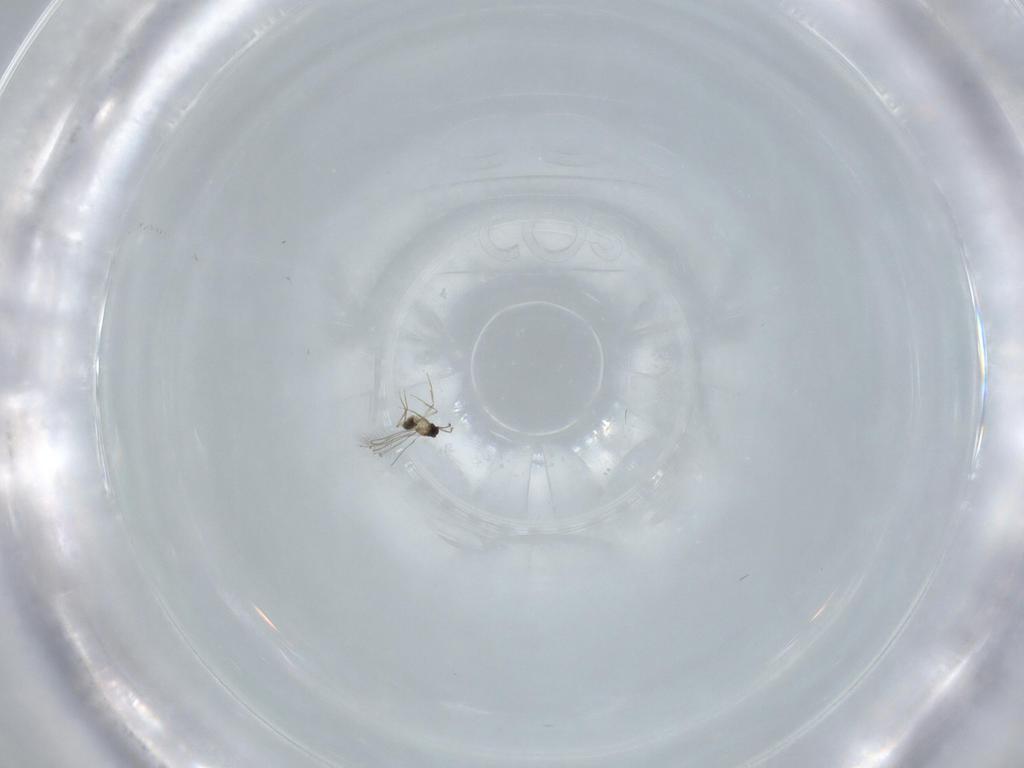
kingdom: Animalia
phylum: Arthropoda
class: Insecta
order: Hymenoptera
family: Mymaridae
